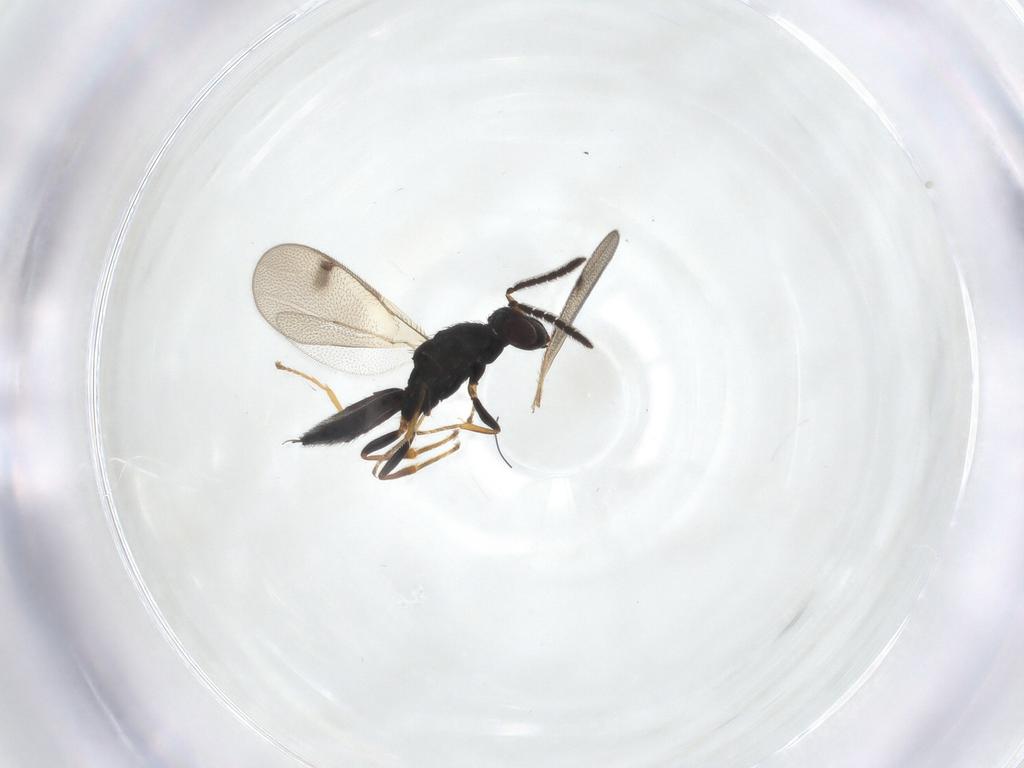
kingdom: Animalia
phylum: Arthropoda
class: Insecta
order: Hymenoptera
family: Pteromalidae
